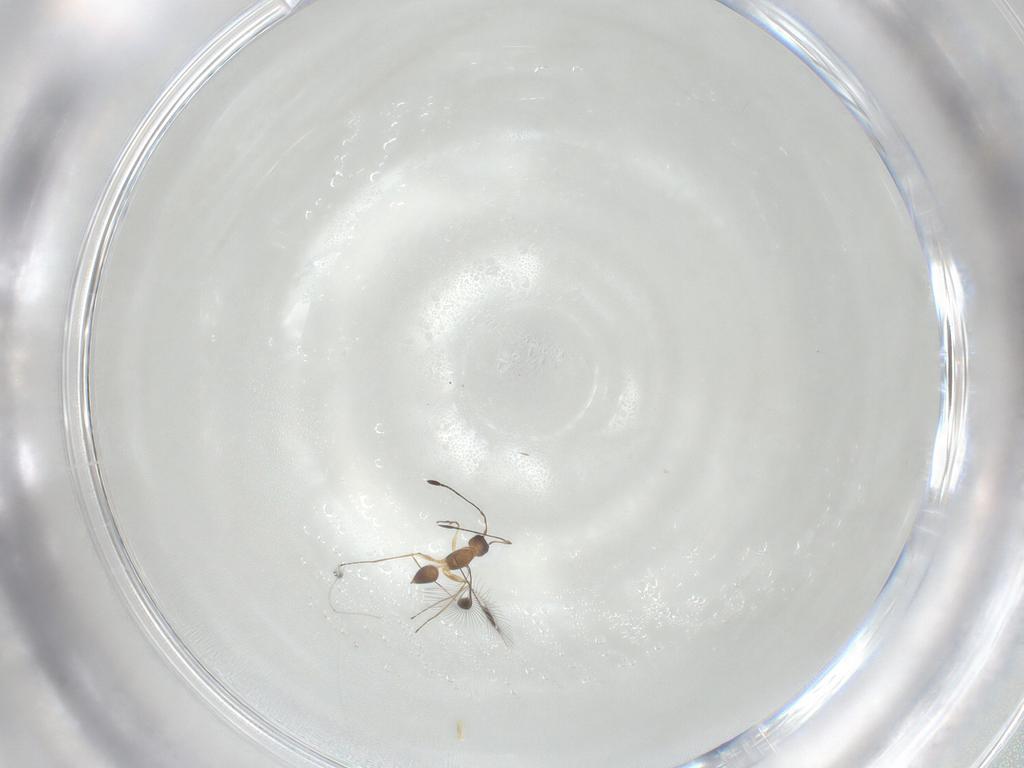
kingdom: Animalia
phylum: Arthropoda
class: Insecta
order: Hymenoptera
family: Mymaridae
